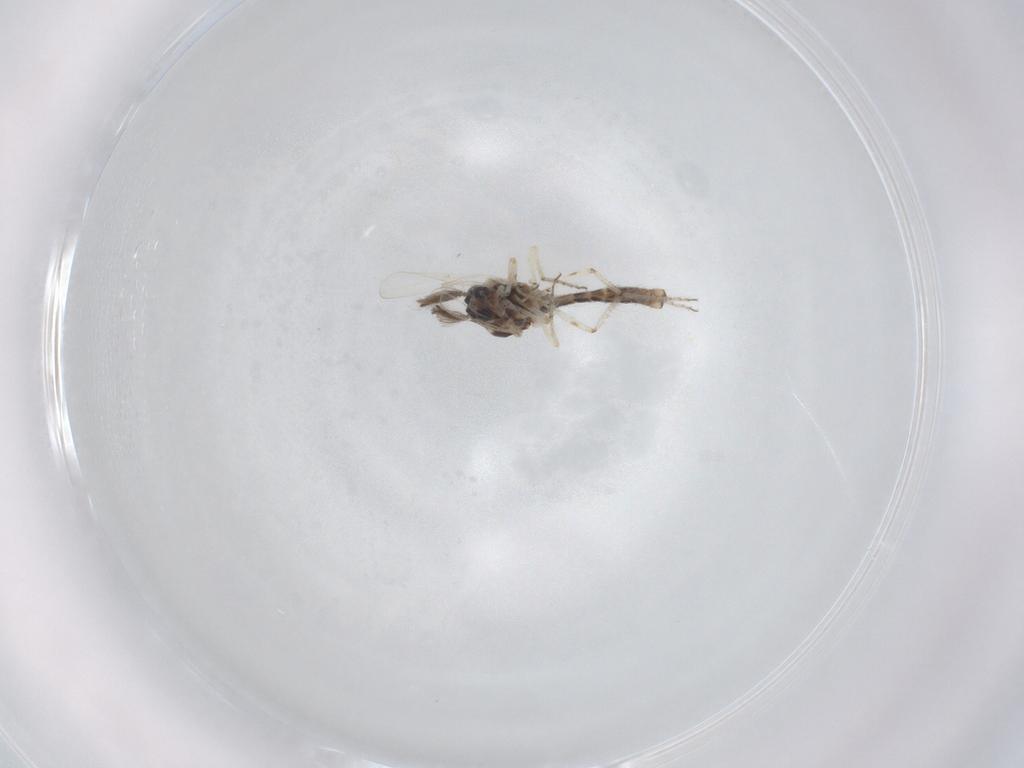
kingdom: Animalia
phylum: Arthropoda
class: Insecta
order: Diptera
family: Ceratopogonidae
